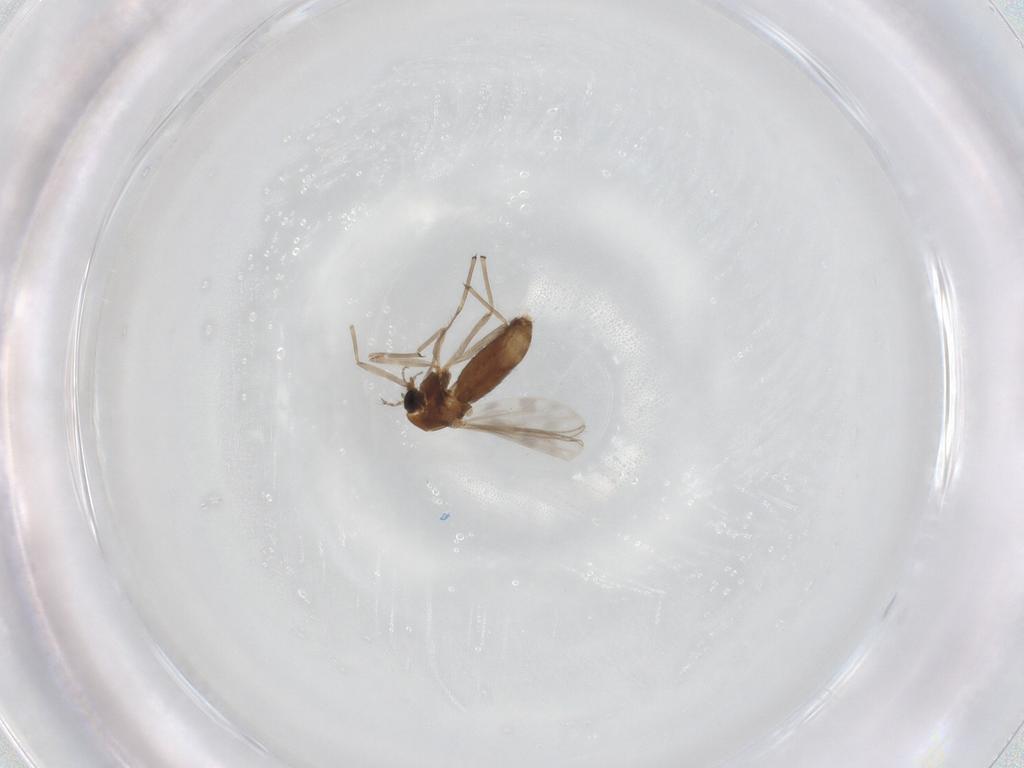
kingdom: Animalia
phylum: Arthropoda
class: Insecta
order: Diptera
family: Chironomidae
